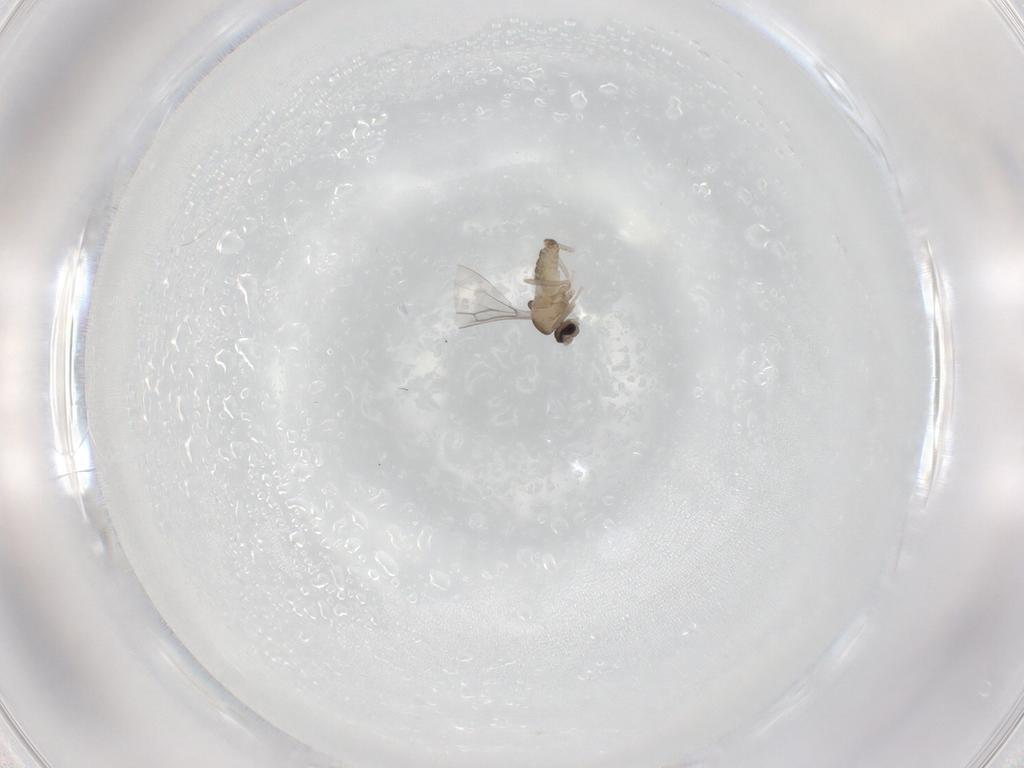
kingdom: Animalia
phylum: Arthropoda
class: Insecta
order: Diptera
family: Cecidomyiidae
